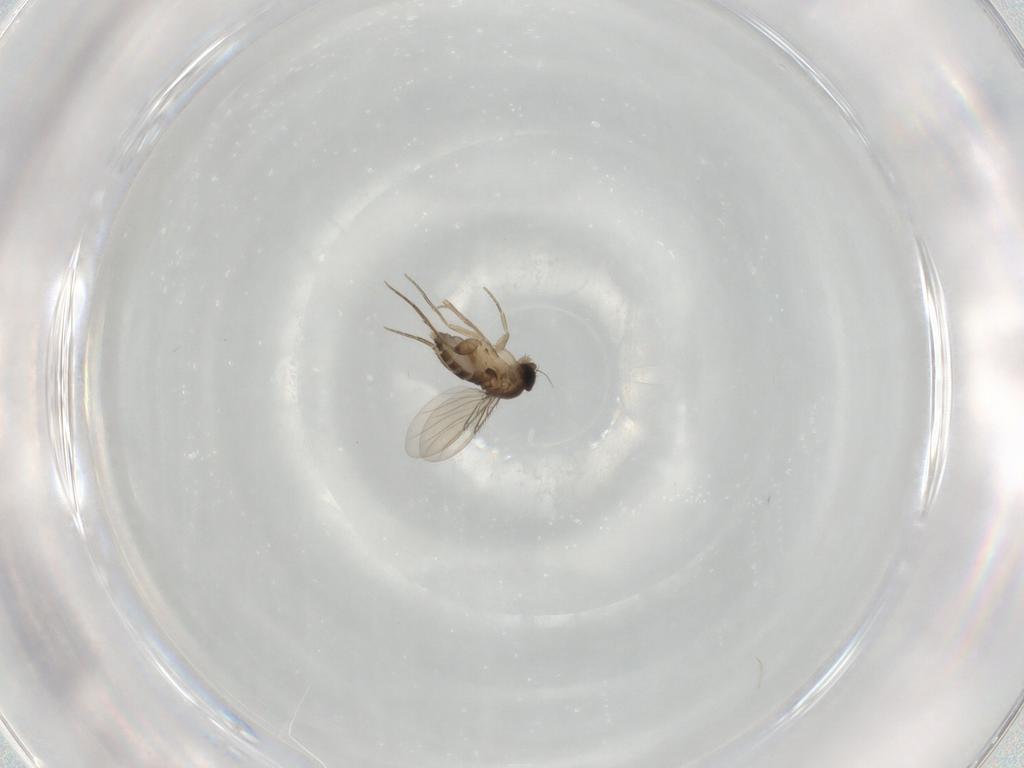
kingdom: Animalia
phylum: Arthropoda
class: Insecta
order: Diptera
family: Phoridae
